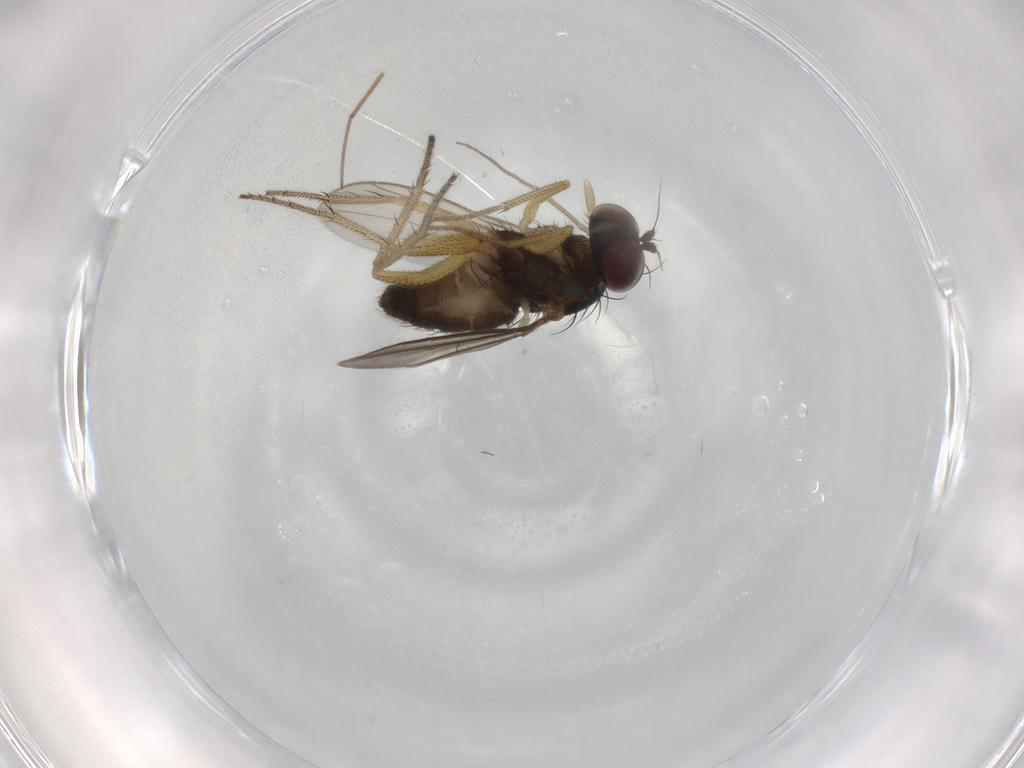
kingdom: Animalia
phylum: Arthropoda
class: Insecta
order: Diptera
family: Dolichopodidae
